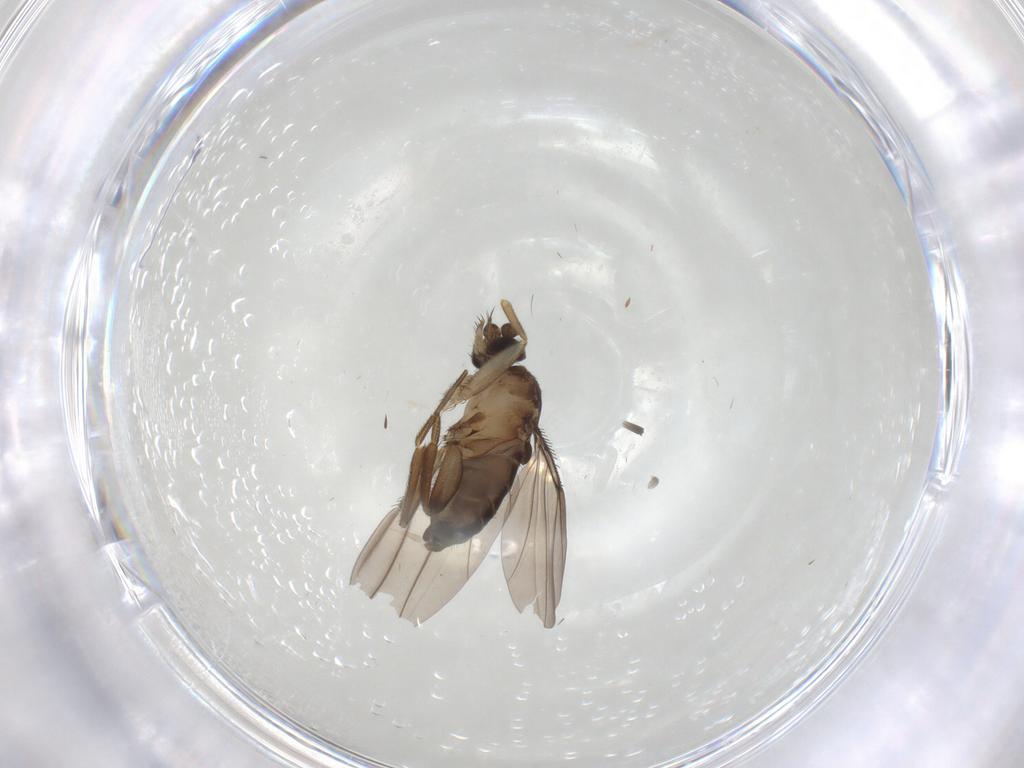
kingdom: Animalia
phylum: Arthropoda
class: Insecta
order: Diptera
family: Phoridae
